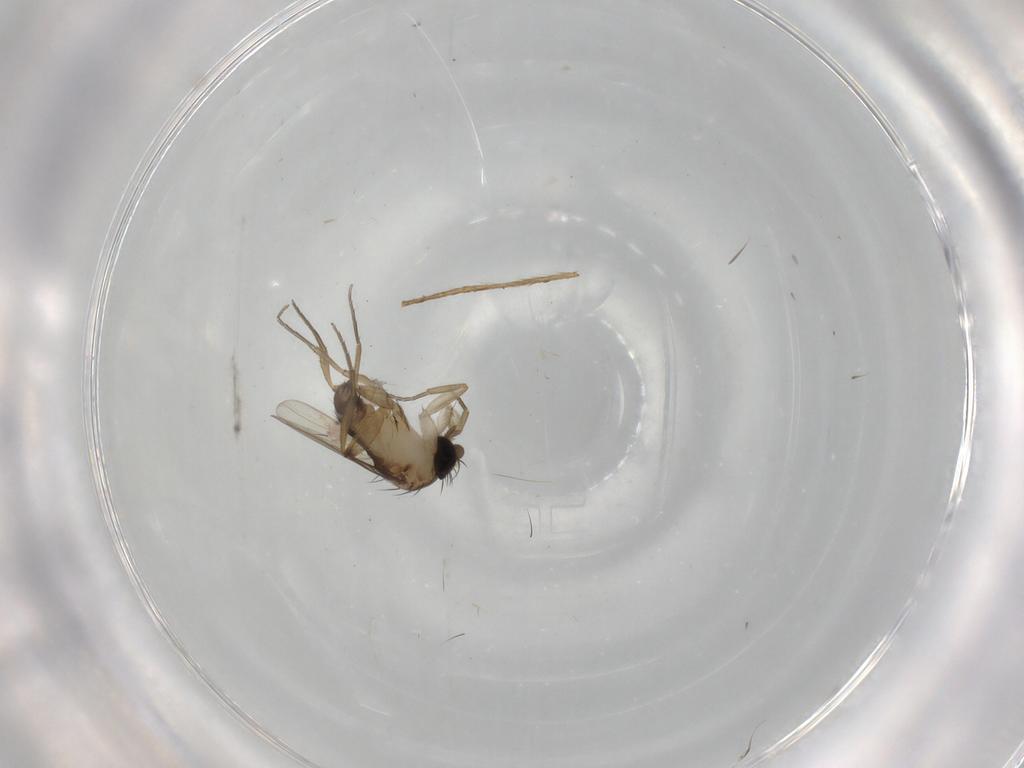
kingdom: Animalia
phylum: Arthropoda
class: Insecta
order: Diptera
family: Phoridae
